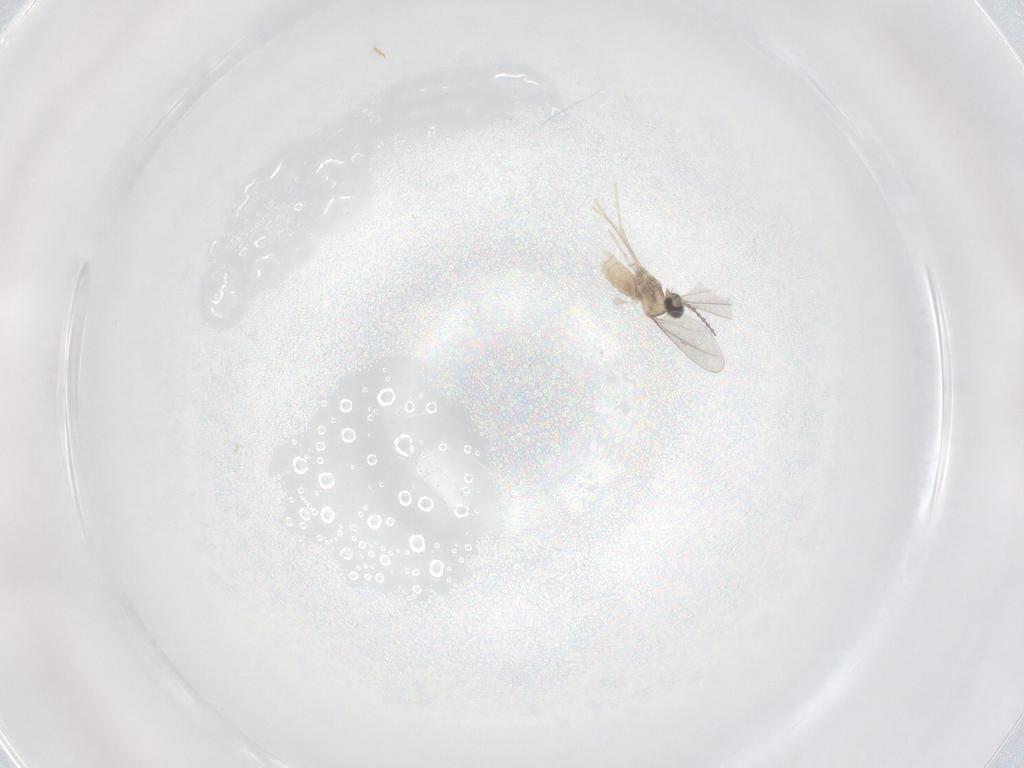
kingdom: Animalia
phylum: Arthropoda
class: Insecta
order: Diptera
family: Cecidomyiidae
